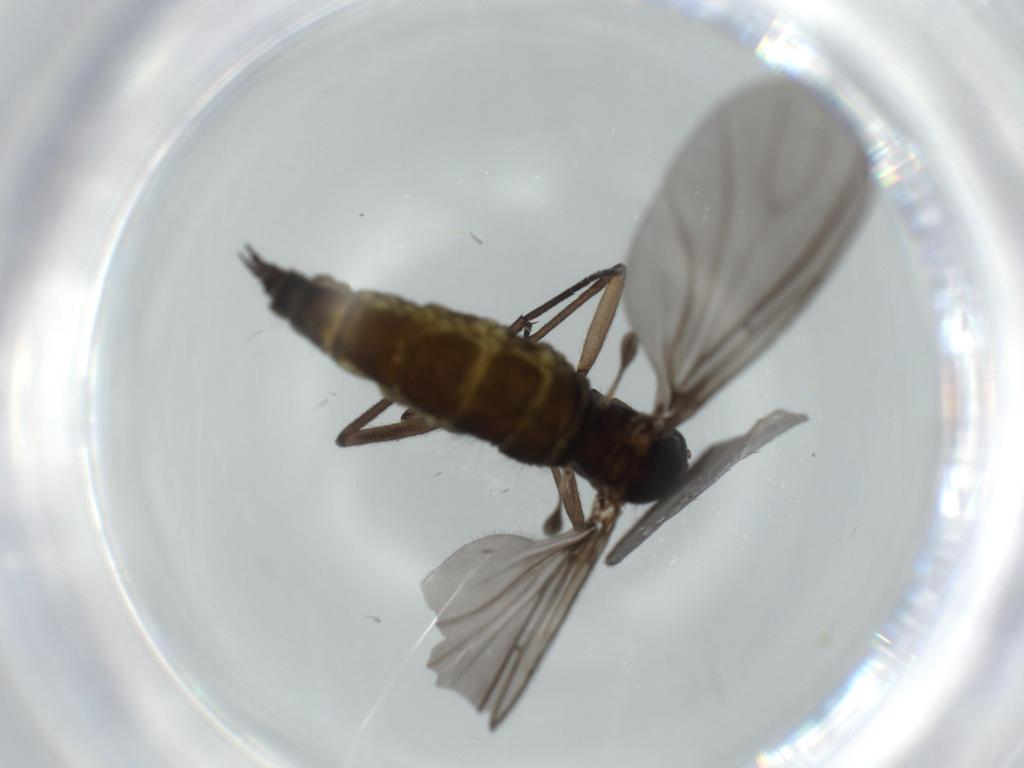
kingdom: Animalia
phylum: Arthropoda
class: Insecta
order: Diptera
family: Sciaridae
